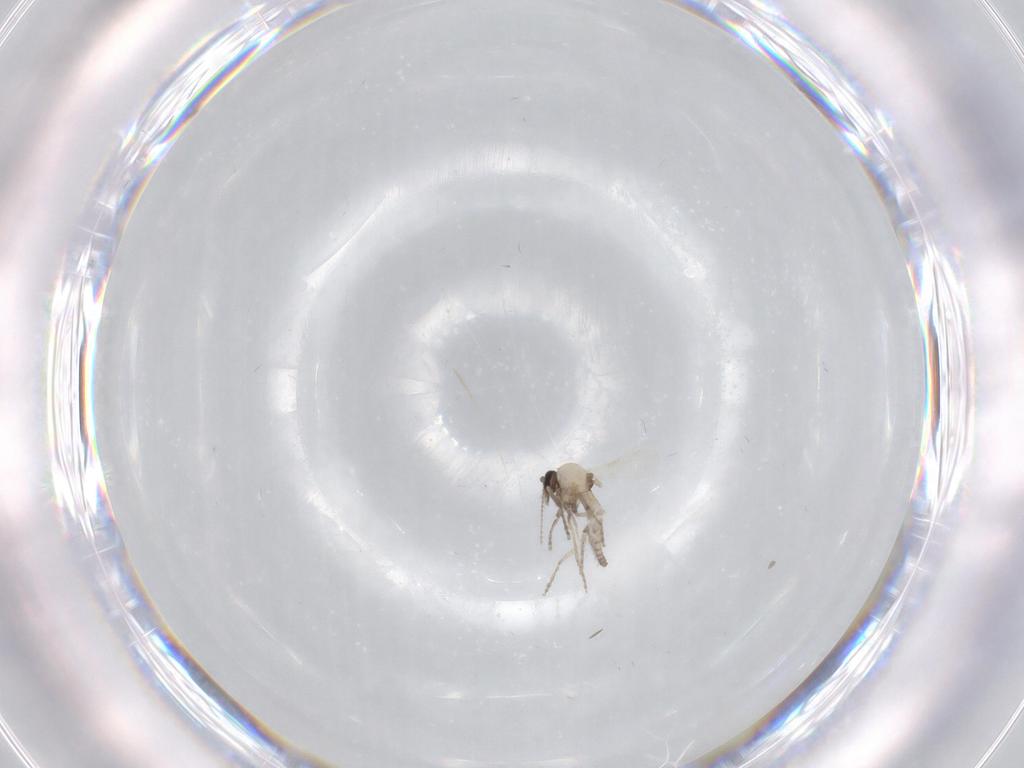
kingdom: Animalia
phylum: Arthropoda
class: Insecta
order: Diptera
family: Ceratopogonidae
